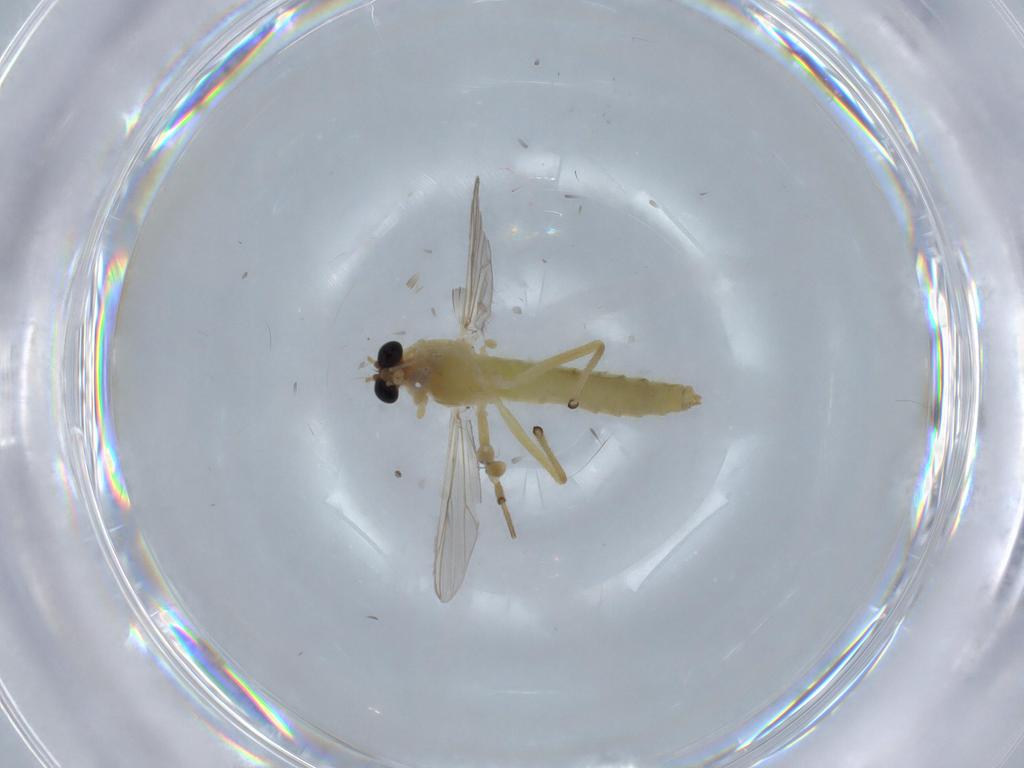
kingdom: Animalia
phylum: Arthropoda
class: Insecta
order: Diptera
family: Chironomidae
